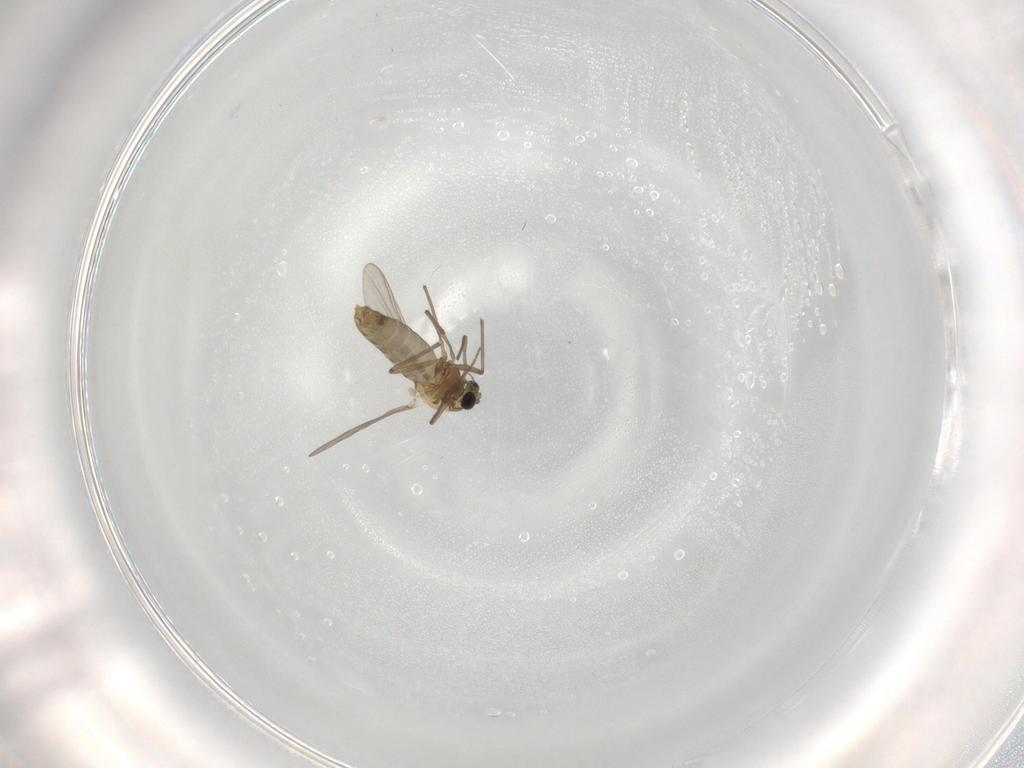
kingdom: Animalia
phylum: Arthropoda
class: Insecta
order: Diptera
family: Chironomidae
